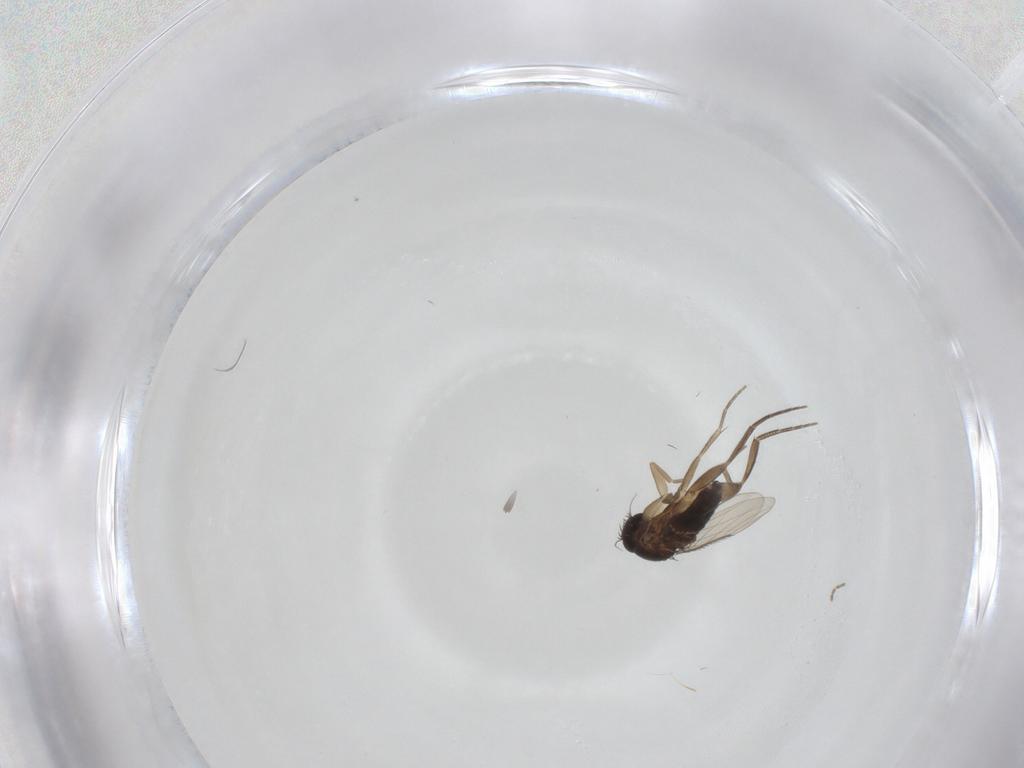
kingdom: Animalia
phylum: Arthropoda
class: Insecta
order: Diptera
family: Phoridae
